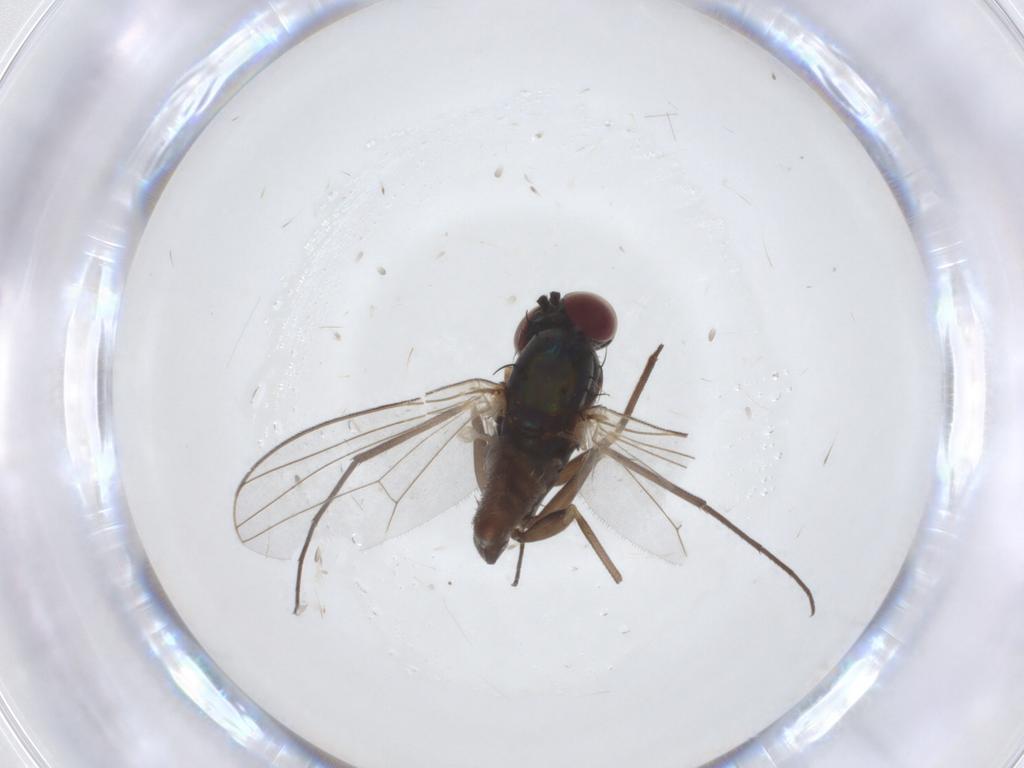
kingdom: Animalia
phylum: Arthropoda
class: Insecta
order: Diptera
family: Dolichopodidae
